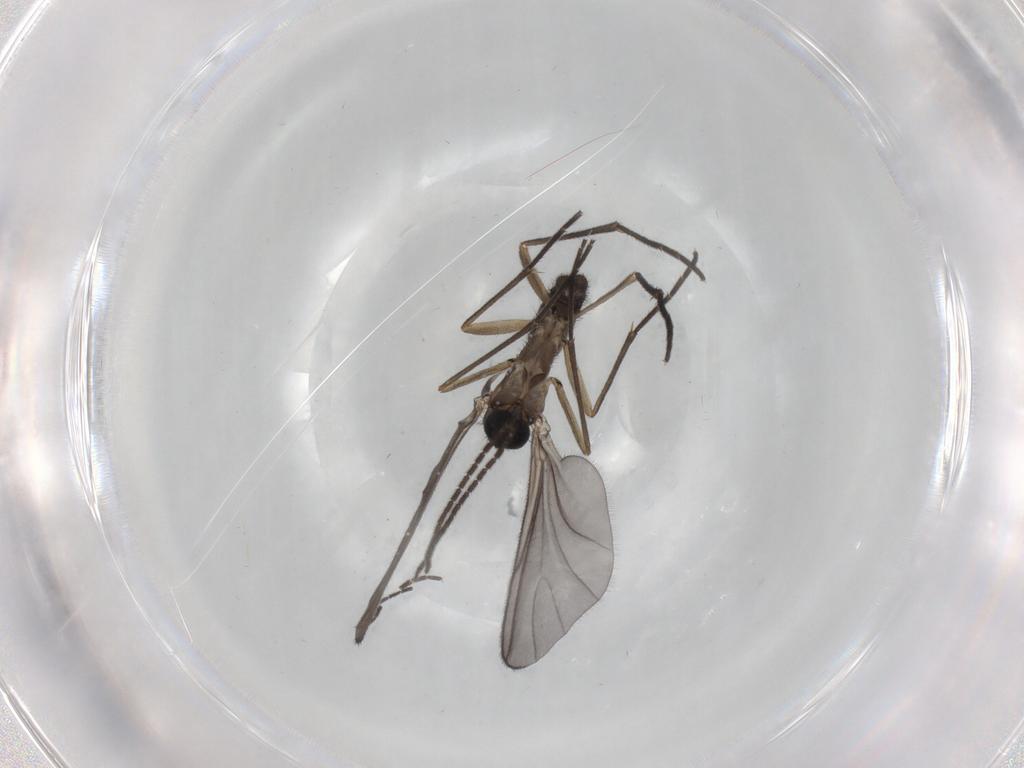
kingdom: Animalia
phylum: Arthropoda
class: Insecta
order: Diptera
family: Sciaridae
